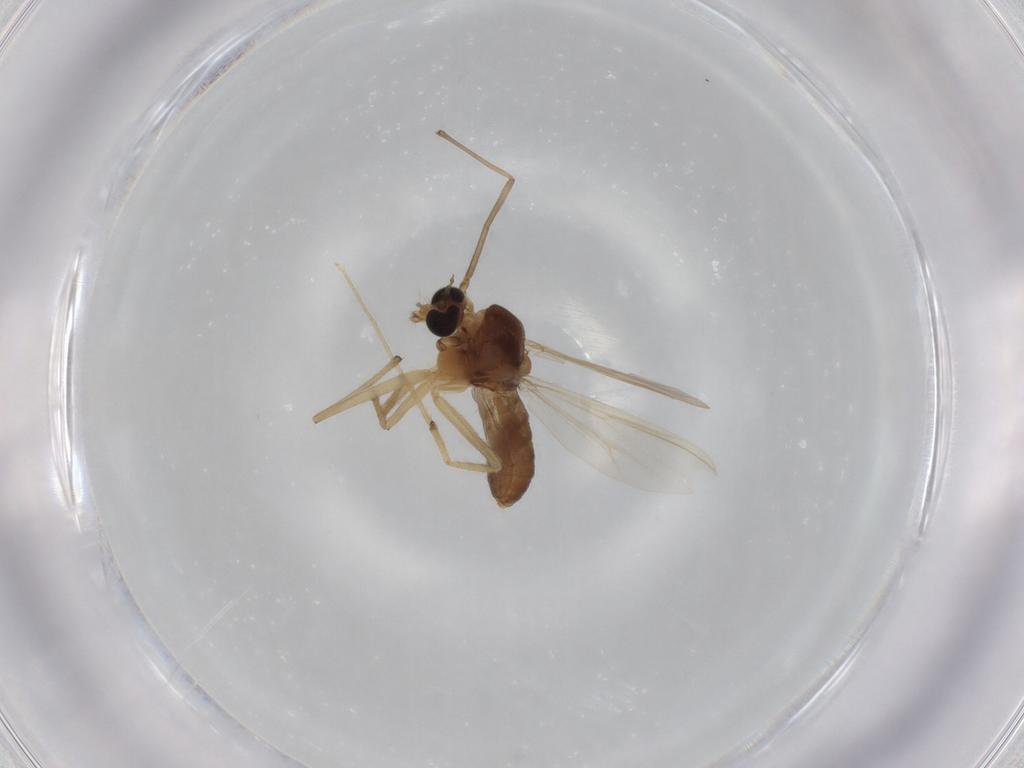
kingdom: Animalia
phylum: Arthropoda
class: Insecta
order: Diptera
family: Chironomidae
